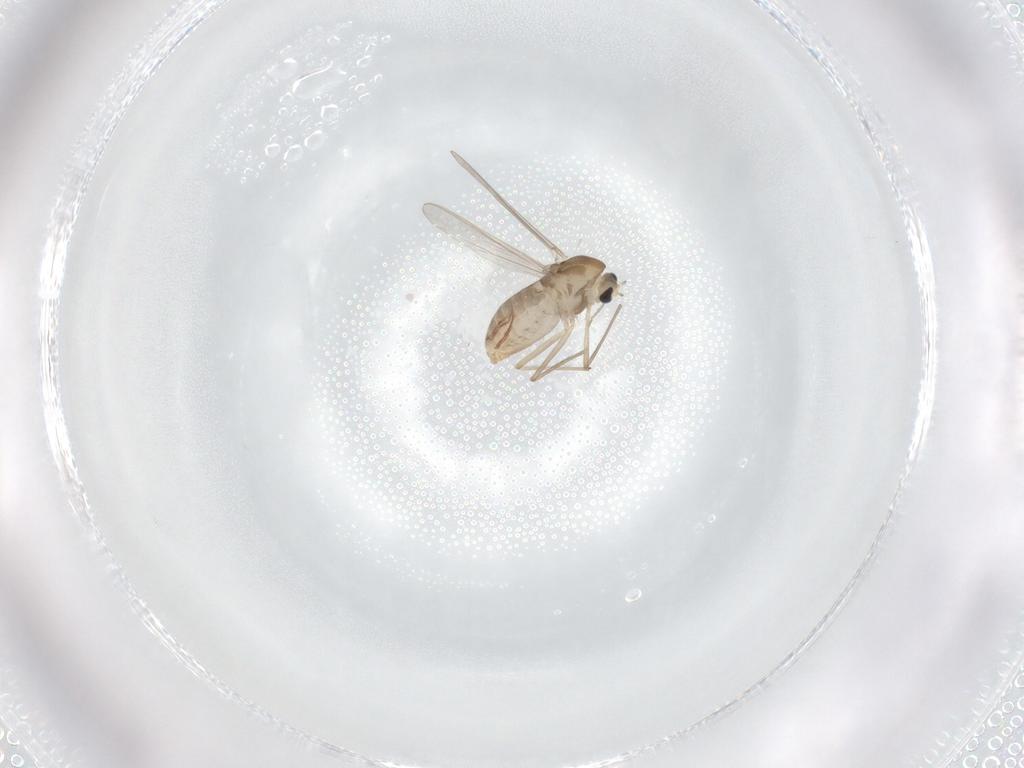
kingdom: Animalia
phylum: Arthropoda
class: Insecta
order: Diptera
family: Chironomidae
